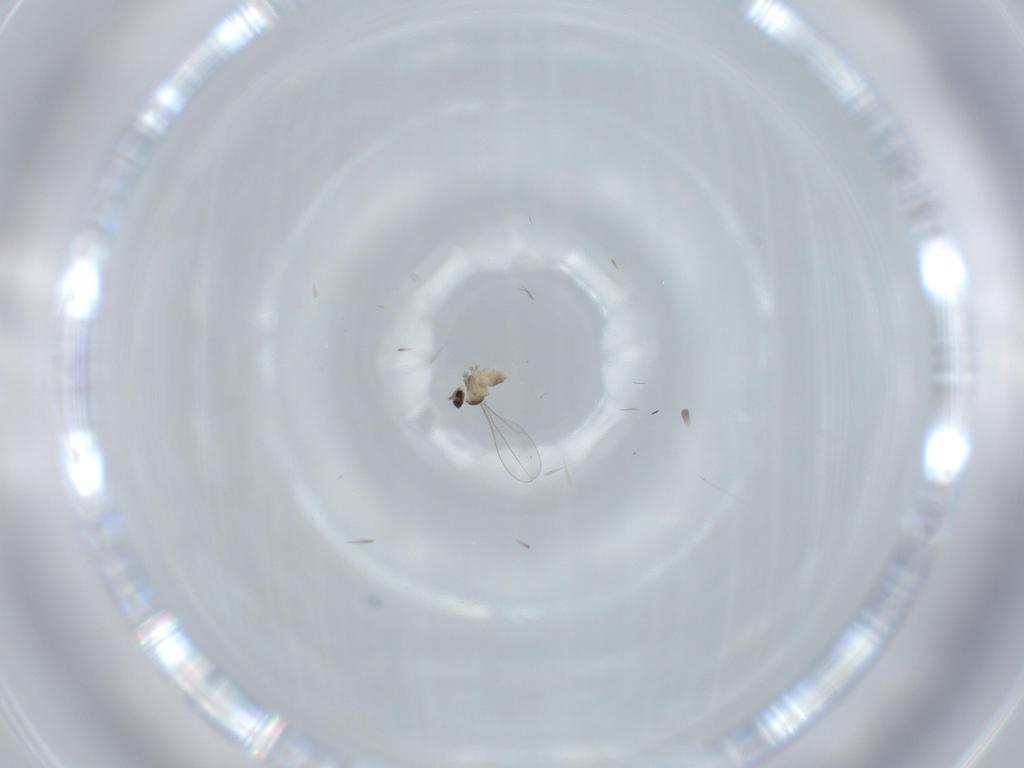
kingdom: Animalia
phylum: Arthropoda
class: Insecta
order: Diptera
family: Cecidomyiidae
